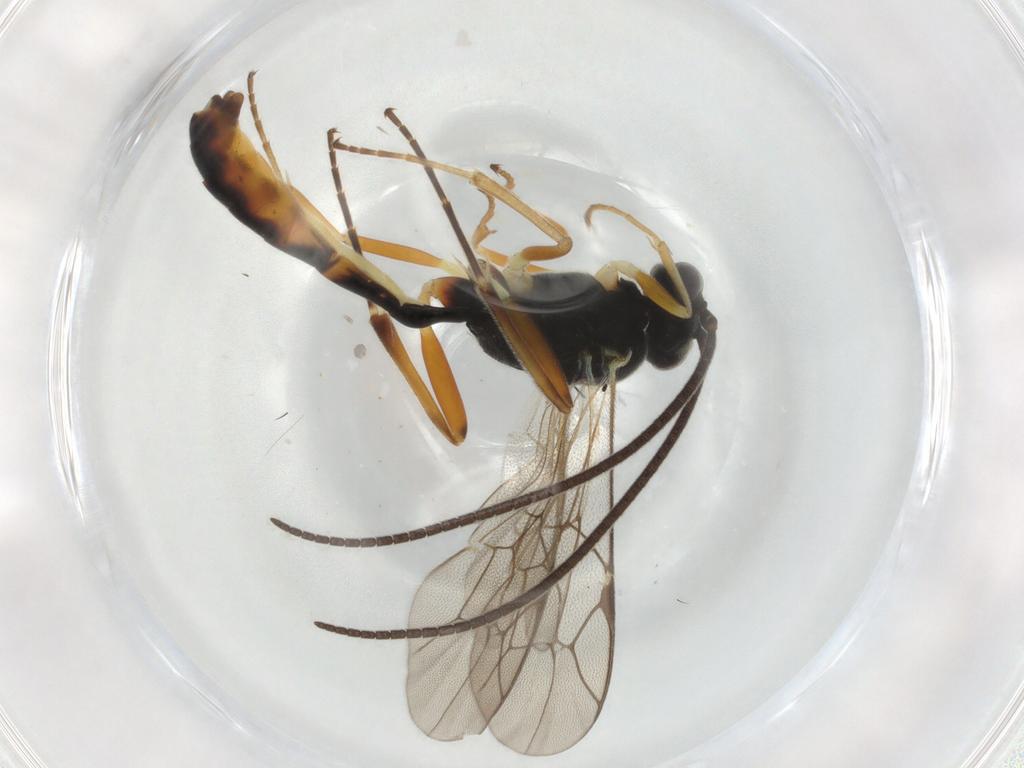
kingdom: Animalia
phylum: Arthropoda
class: Insecta
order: Hymenoptera
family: Ichneumonidae
